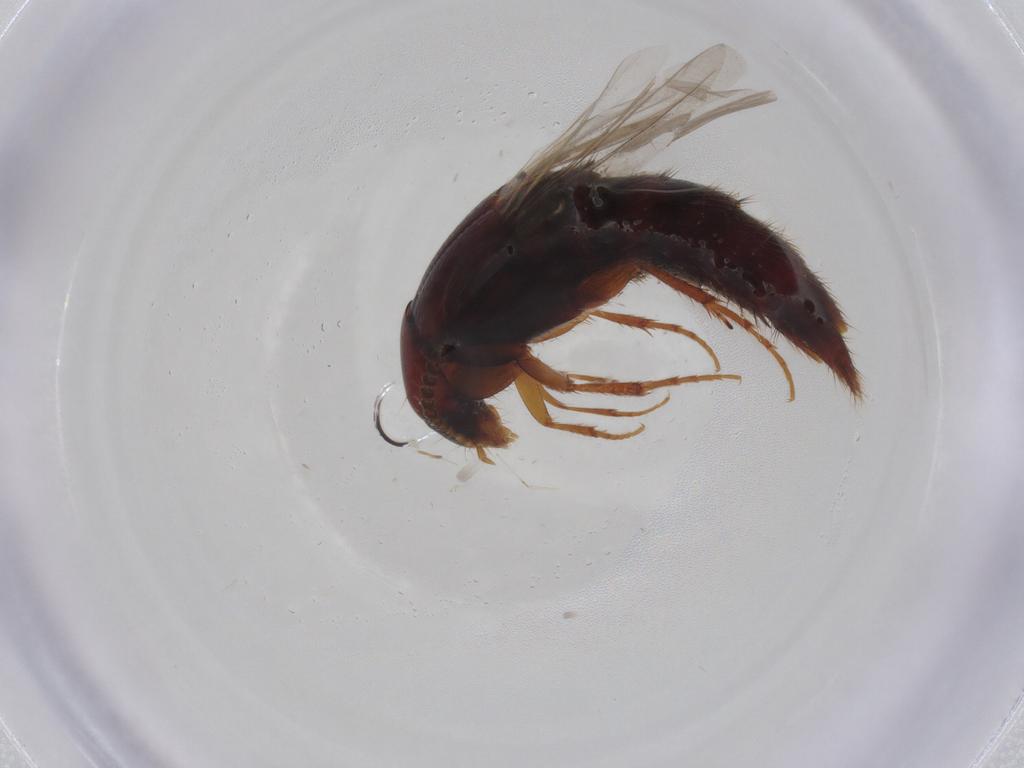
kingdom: Animalia
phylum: Arthropoda
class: Insecta
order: Coleoptera
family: Staphylinidae
